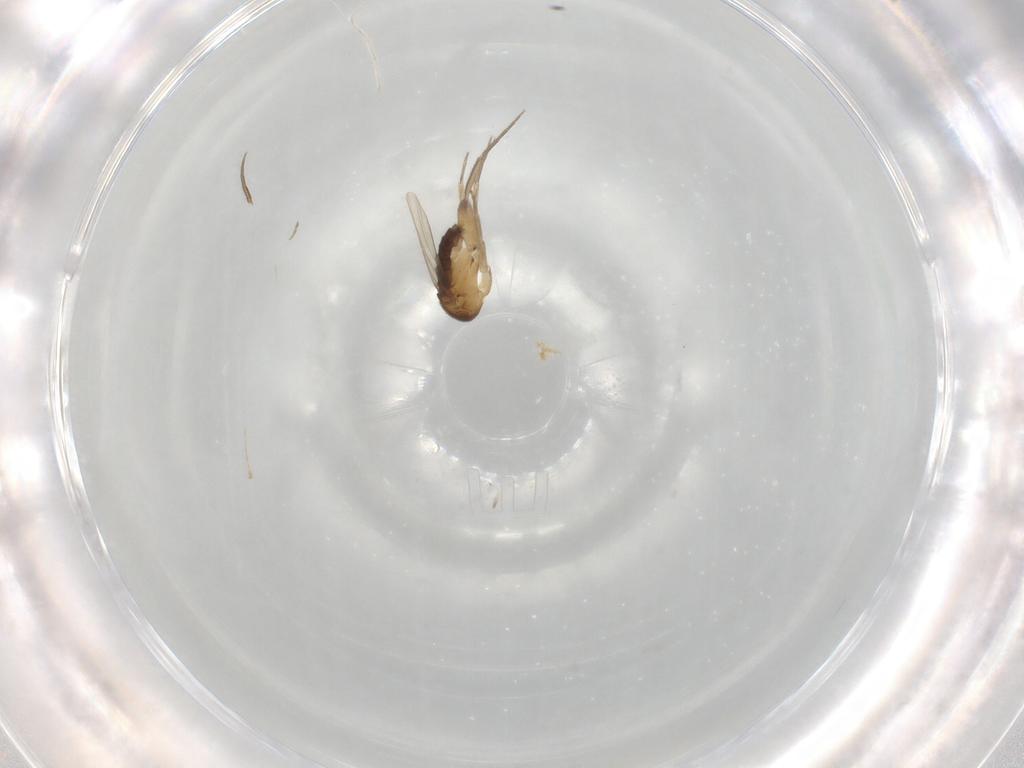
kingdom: Animalia
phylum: Arthropoda
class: Insecta
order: Diptera
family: Phoridae
